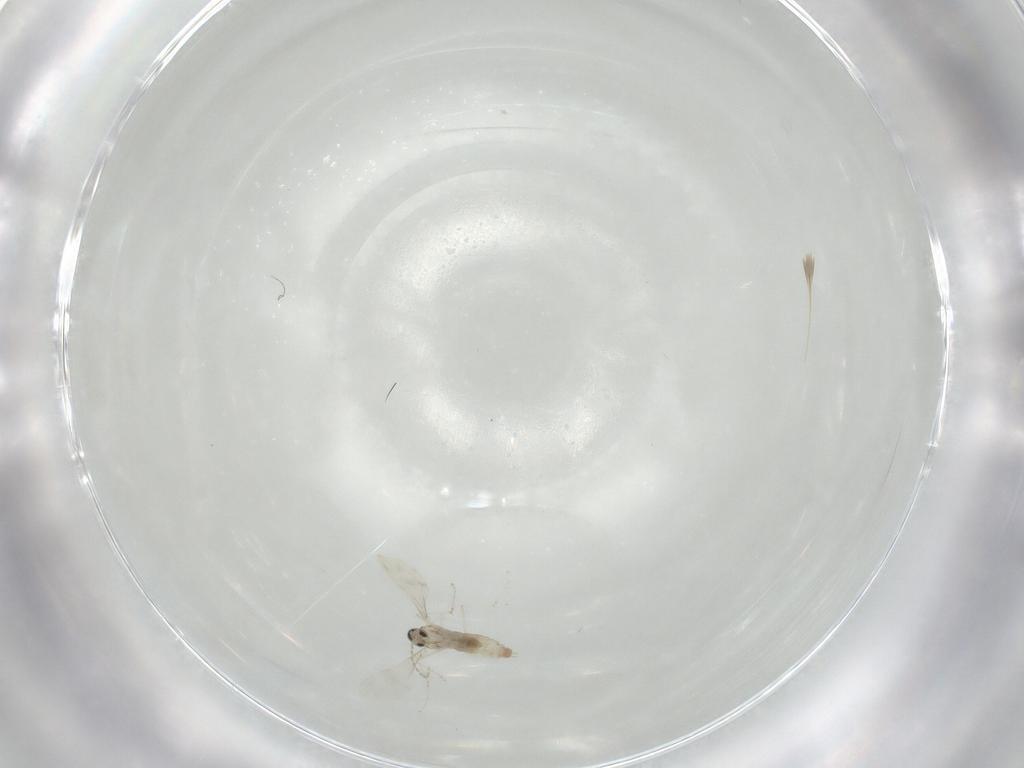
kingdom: Animalia
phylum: Arthropoda
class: Insecta
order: Diptera
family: Cecidomyiidae
